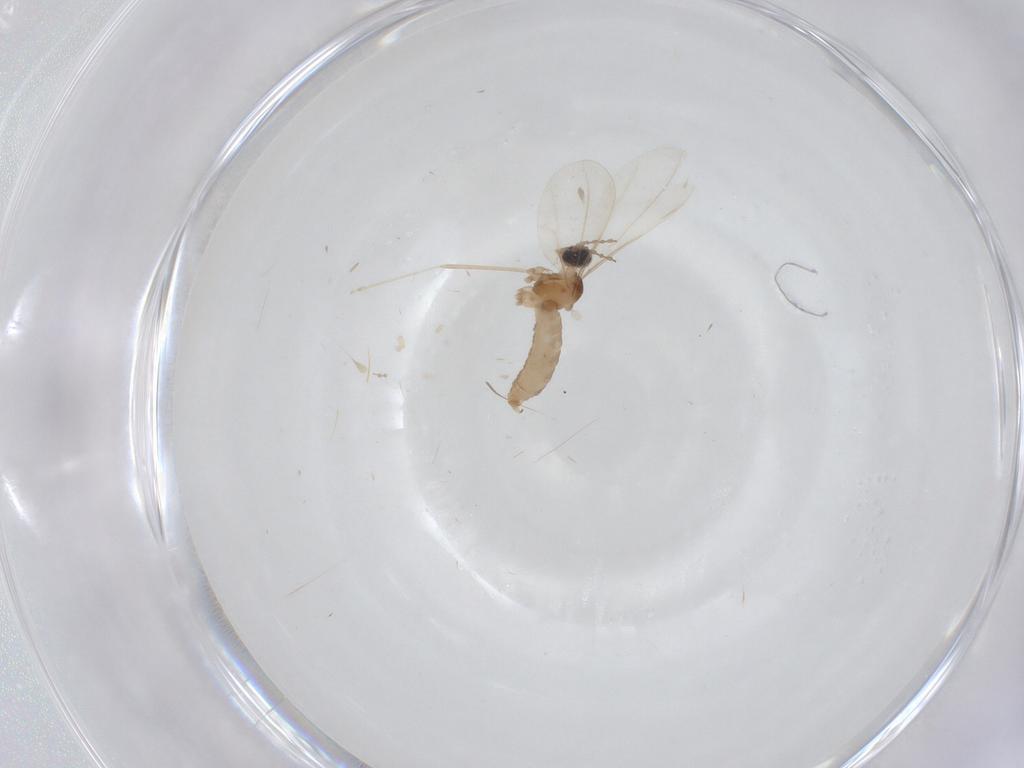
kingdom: Animalia
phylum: Arthropoda
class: Insecta
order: Diptera
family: Cecidomyiidae
